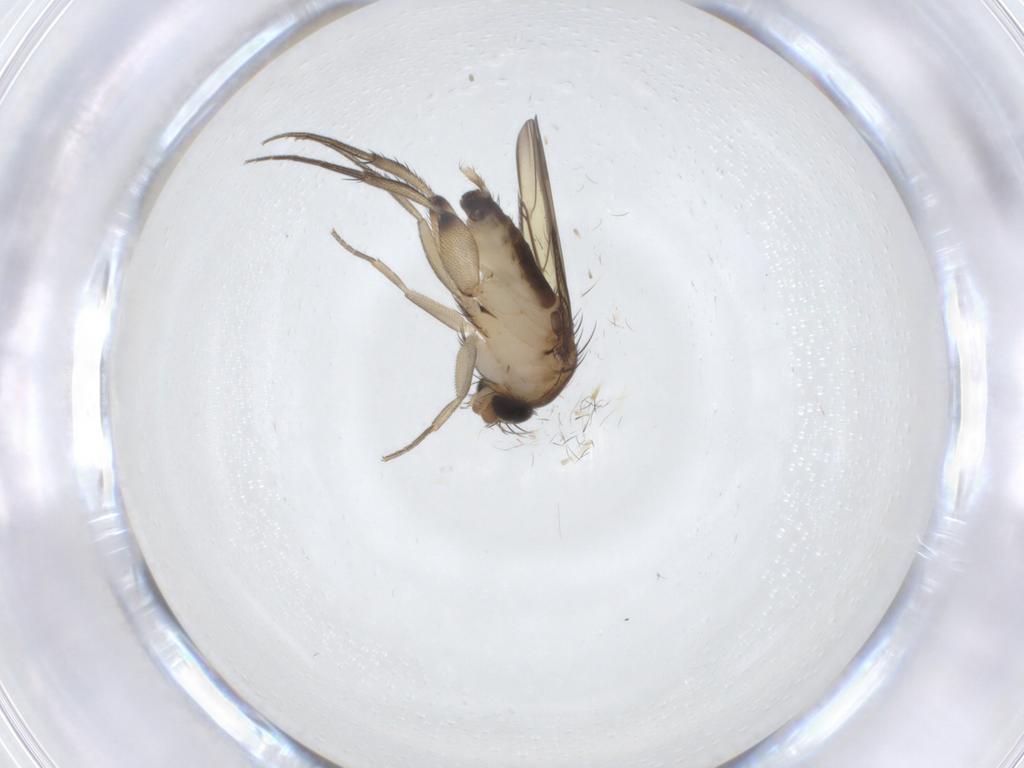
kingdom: Animalia
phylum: Arthropoda
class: Insecta
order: Diptera
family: Phoridae
